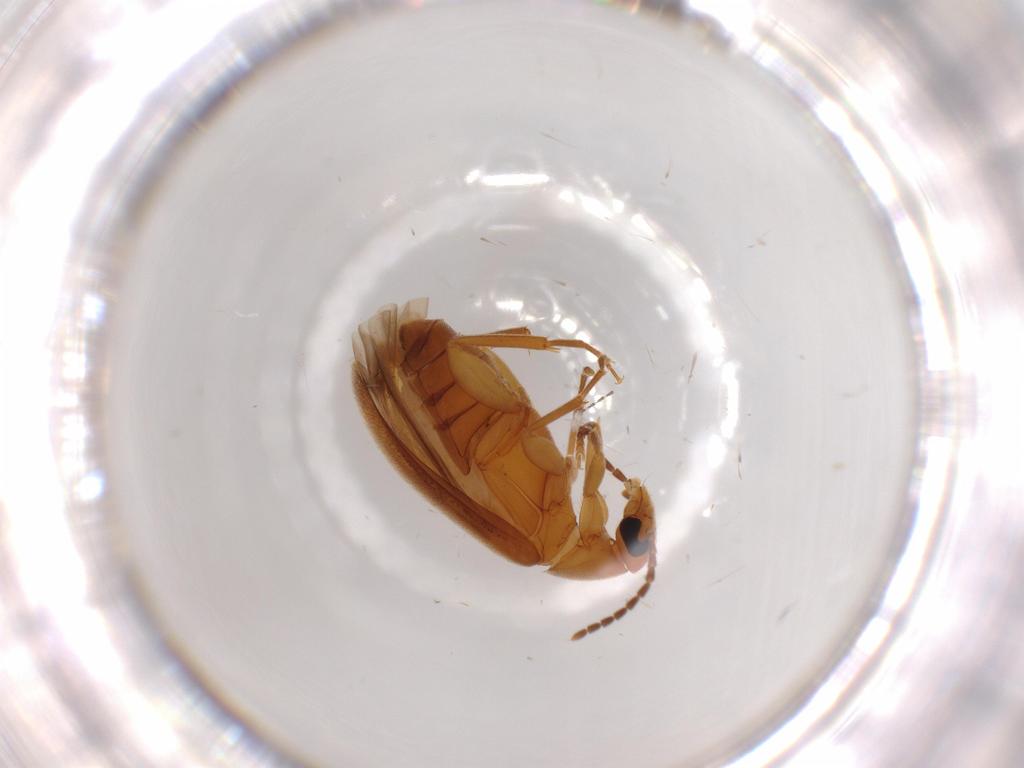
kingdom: Animalia
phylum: Arthropoda
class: Insecta
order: Coleoptera
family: Scraptiidae
